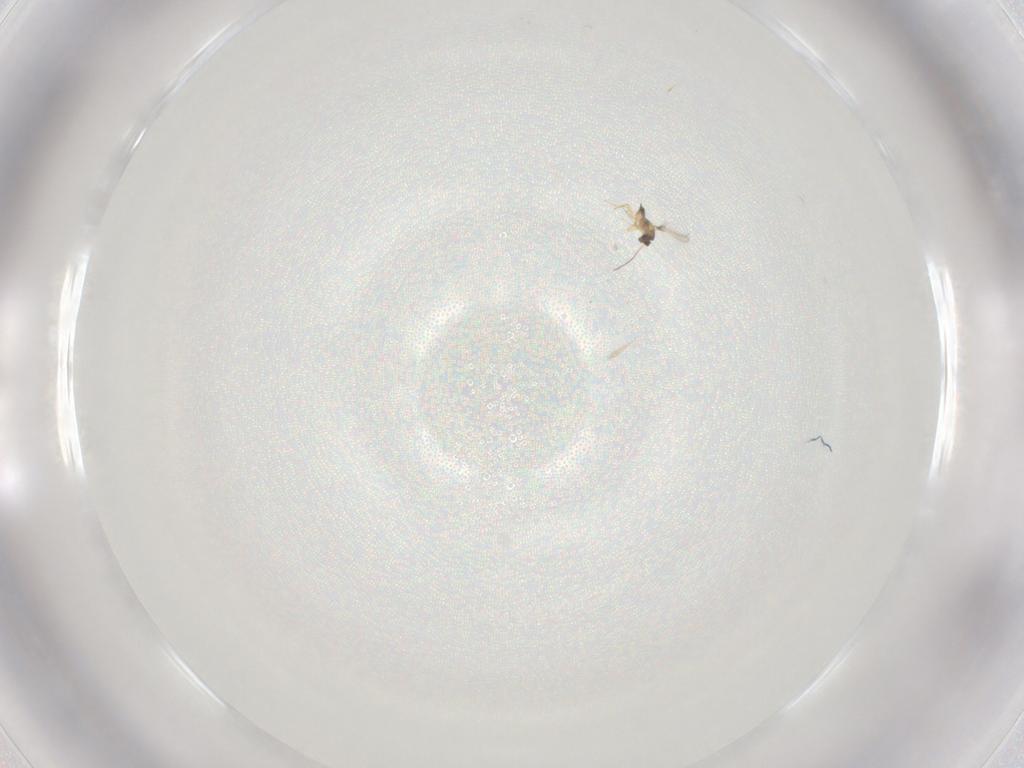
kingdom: Animalia
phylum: Arthropoda
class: Insecta
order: Hymenoptera
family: Mymaridae
